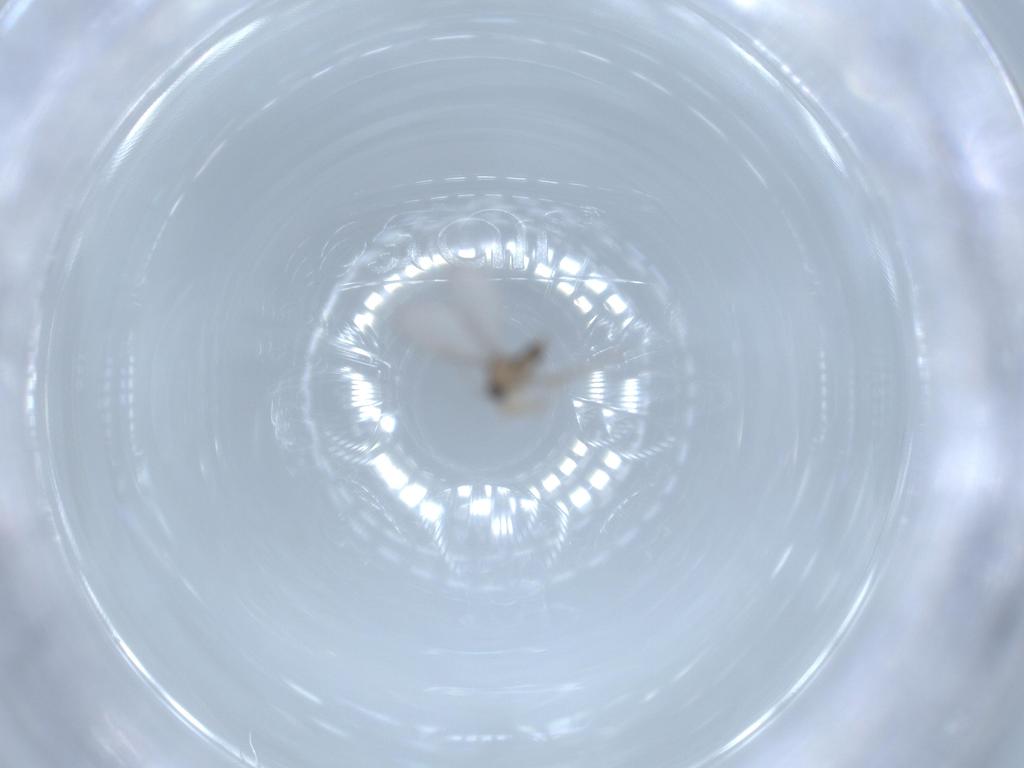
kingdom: Animalia
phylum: Arthropoda
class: Insecta
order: Diptera
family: Cecidomyiidae
